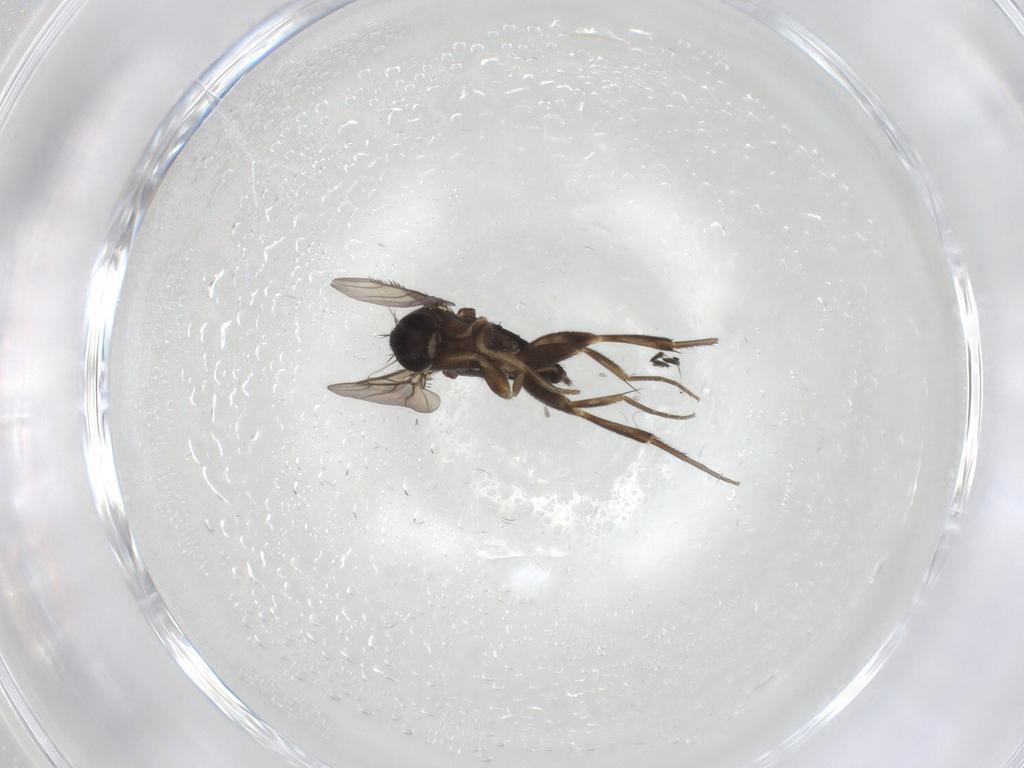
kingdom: Animalia
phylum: Arthropoda
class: Insecta
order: Diptera
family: Phoridae
